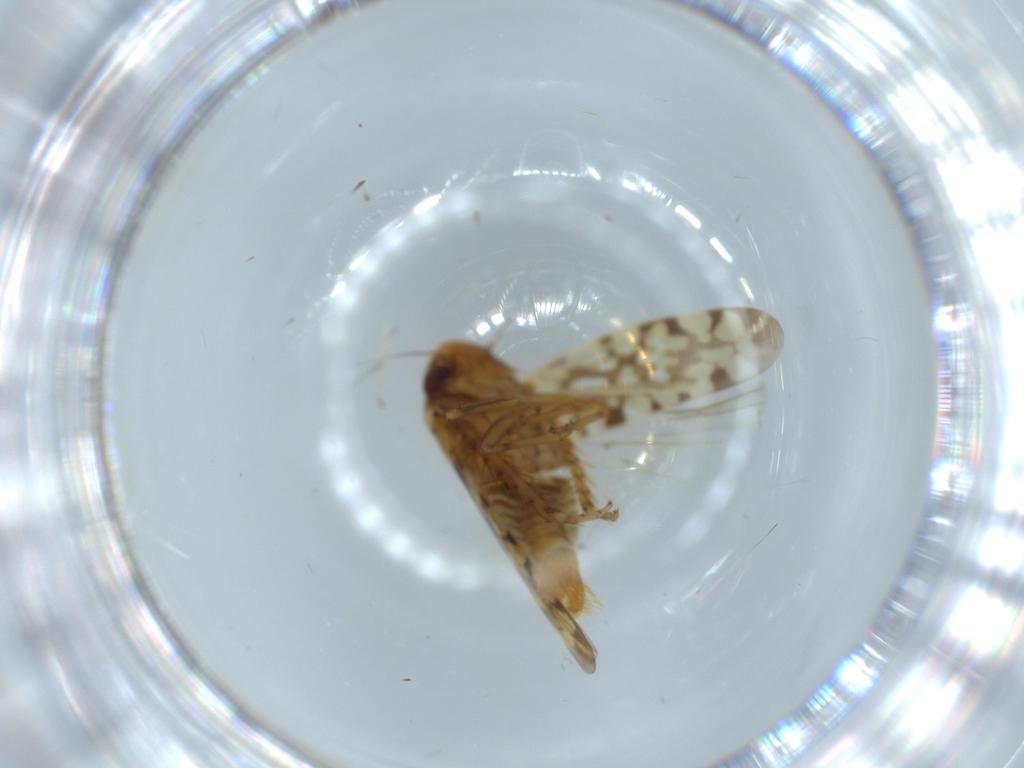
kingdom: Animalia
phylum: Arthropoda
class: Insecta
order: Hemiptera
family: Cicadellidae
